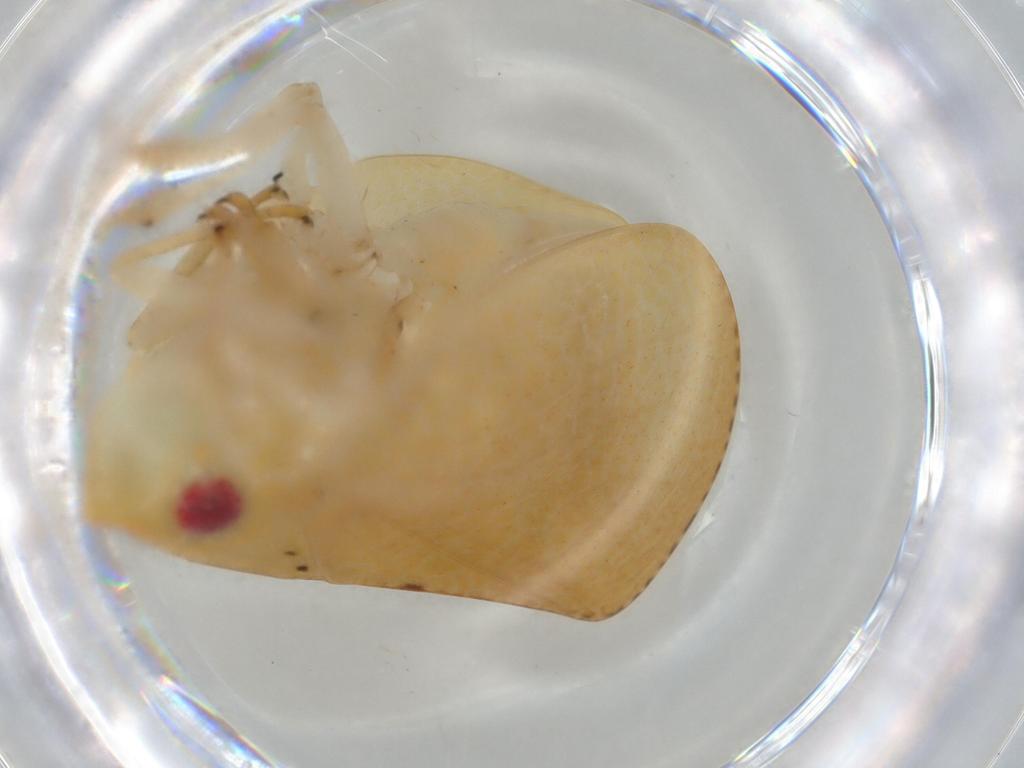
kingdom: Animalia
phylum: Arthropoda
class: Insecta
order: Hemiptera
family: Acanaloniidae
